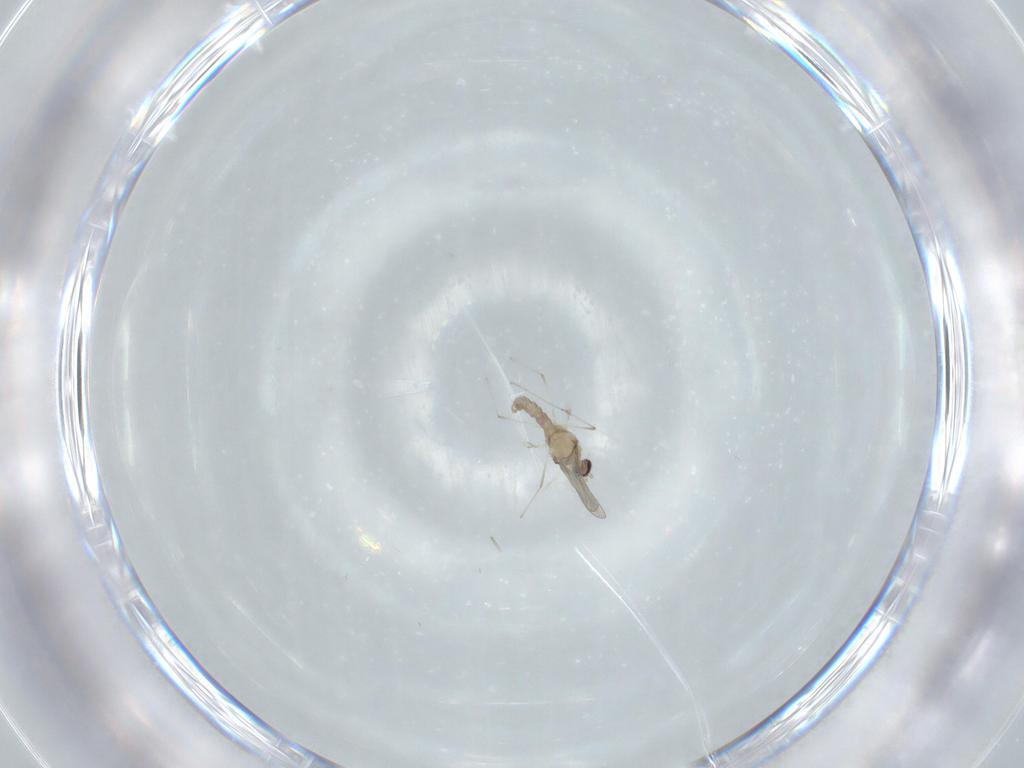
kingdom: Animalia
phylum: Arthropoda
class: Insecta
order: Diptera
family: Cecidomyiidae
